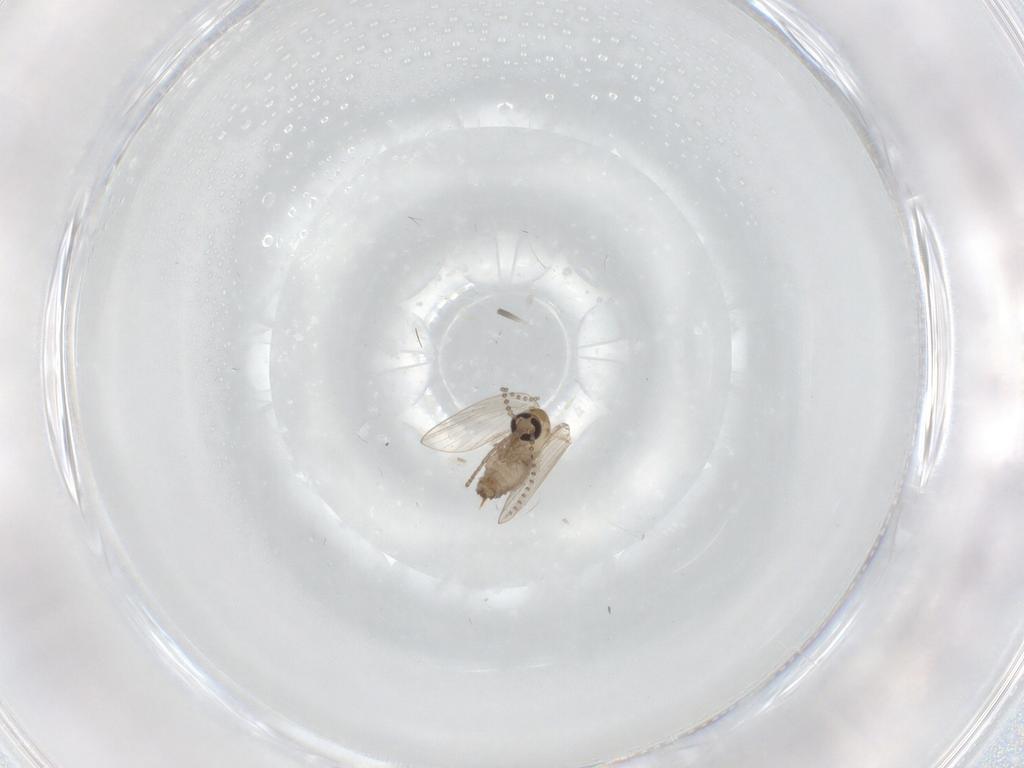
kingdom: Animalia
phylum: Arthropoda
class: Insecta
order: Diptera
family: Psychodidae
